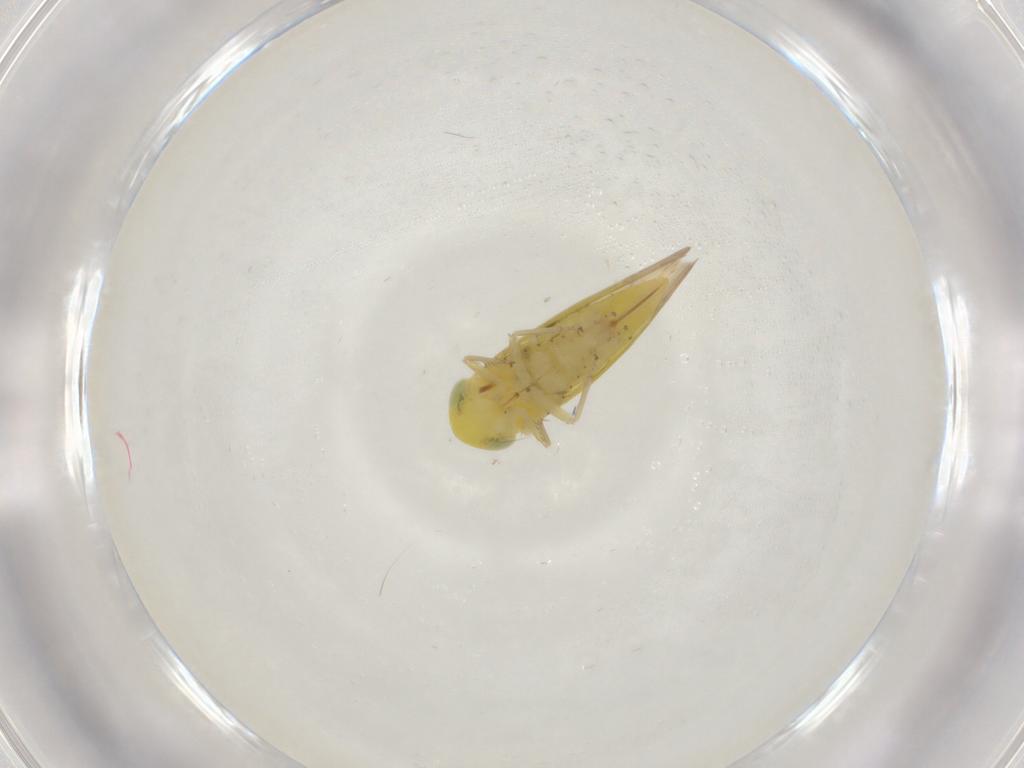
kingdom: Animalia
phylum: Arthropoda
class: Insecta
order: Hemiptera
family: Cicadellidae
